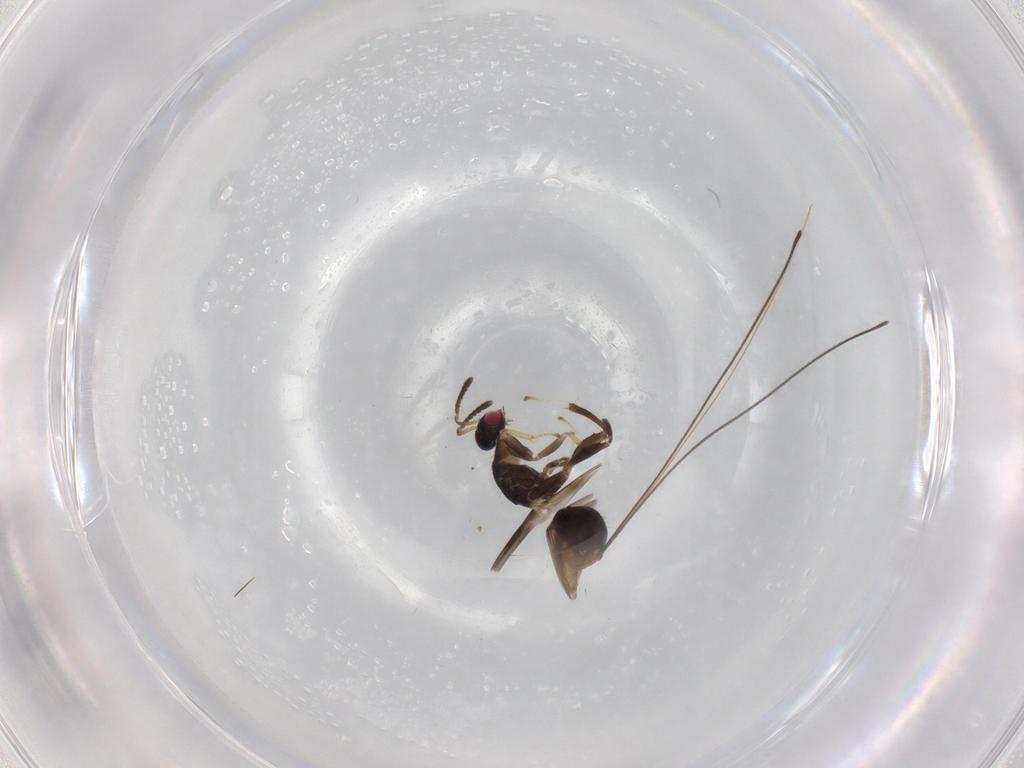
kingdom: Animalia
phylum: Arthropoda
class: Insecta
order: Hymenoptera
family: Torymidae
